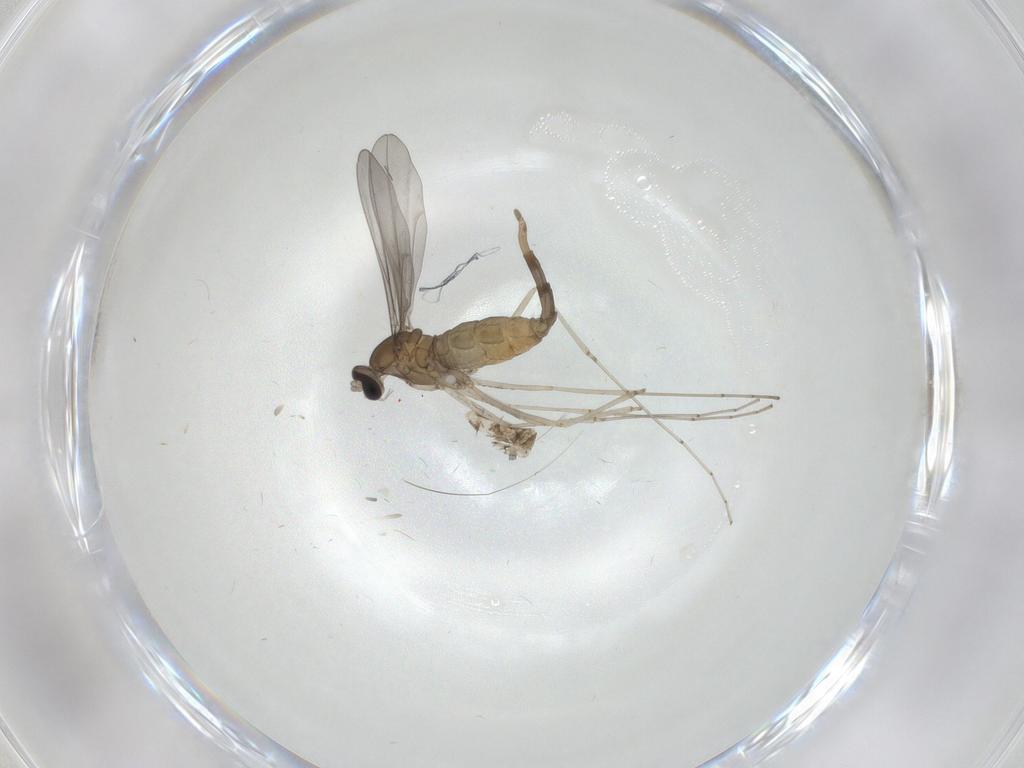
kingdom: Animalia
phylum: Arthropoda
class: Insecta
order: Diptera
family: Cecidomyiidae
